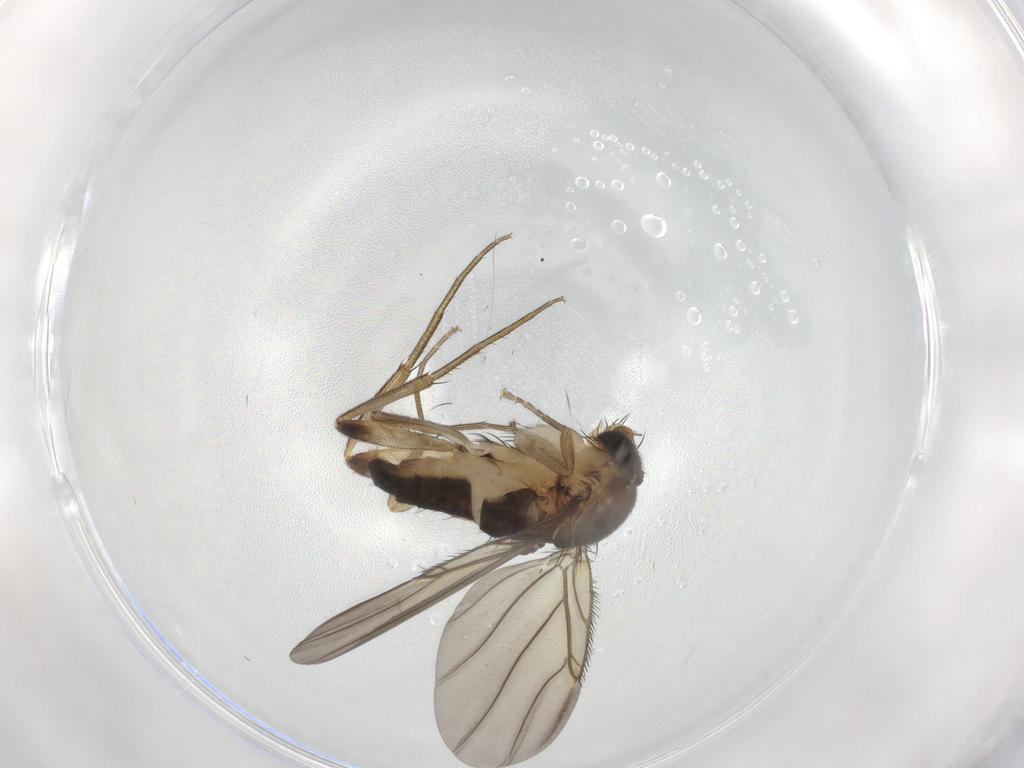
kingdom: Animalia
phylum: Arthropoda
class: Insecta
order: Diptera
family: Phoridae
